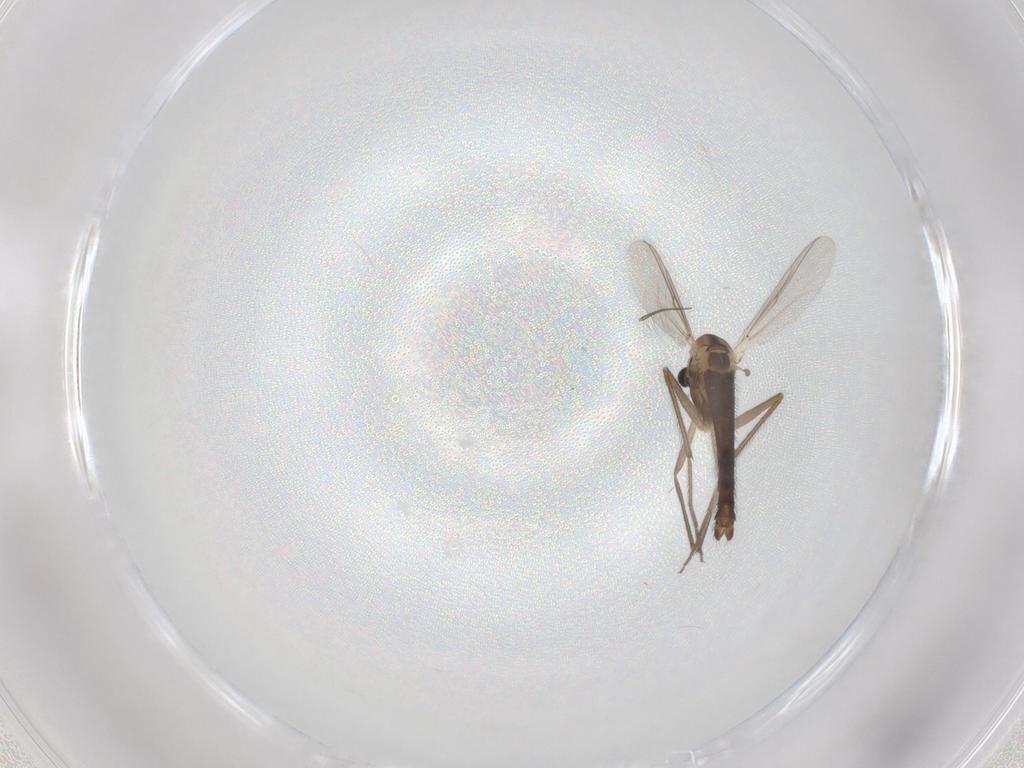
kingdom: Animalia
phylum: Arthropoda
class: Insecta
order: Diptera
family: Chironomidae
